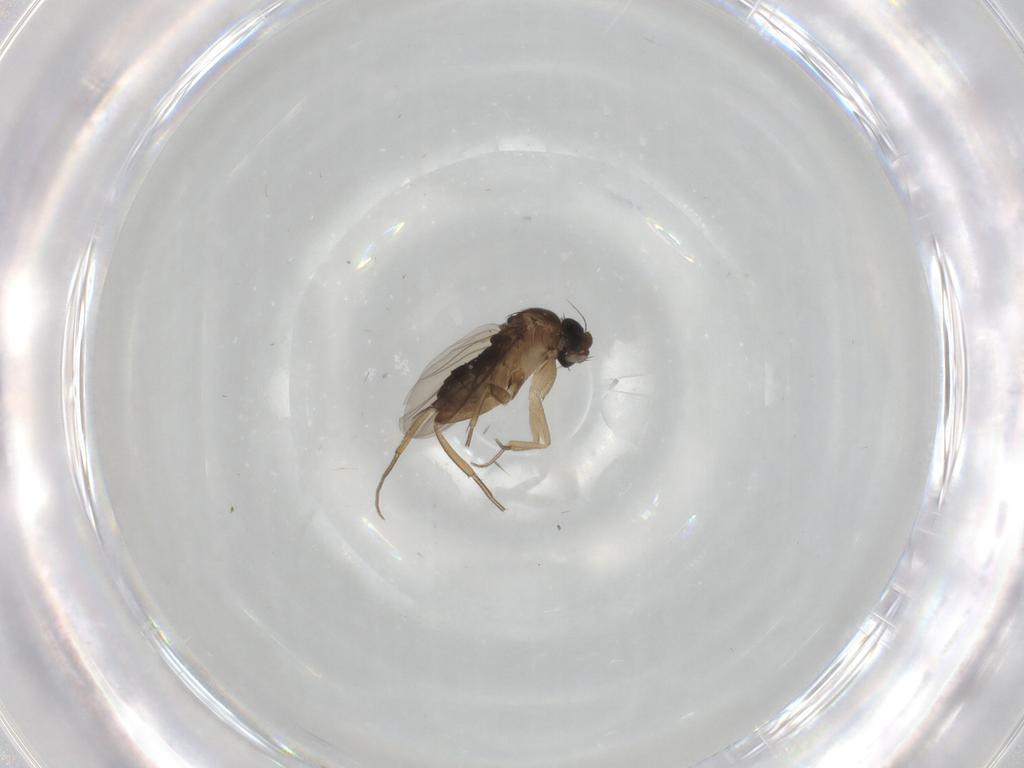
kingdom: Animalia
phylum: Arthropoda
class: Insecta
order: Diptera
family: Phoridae
